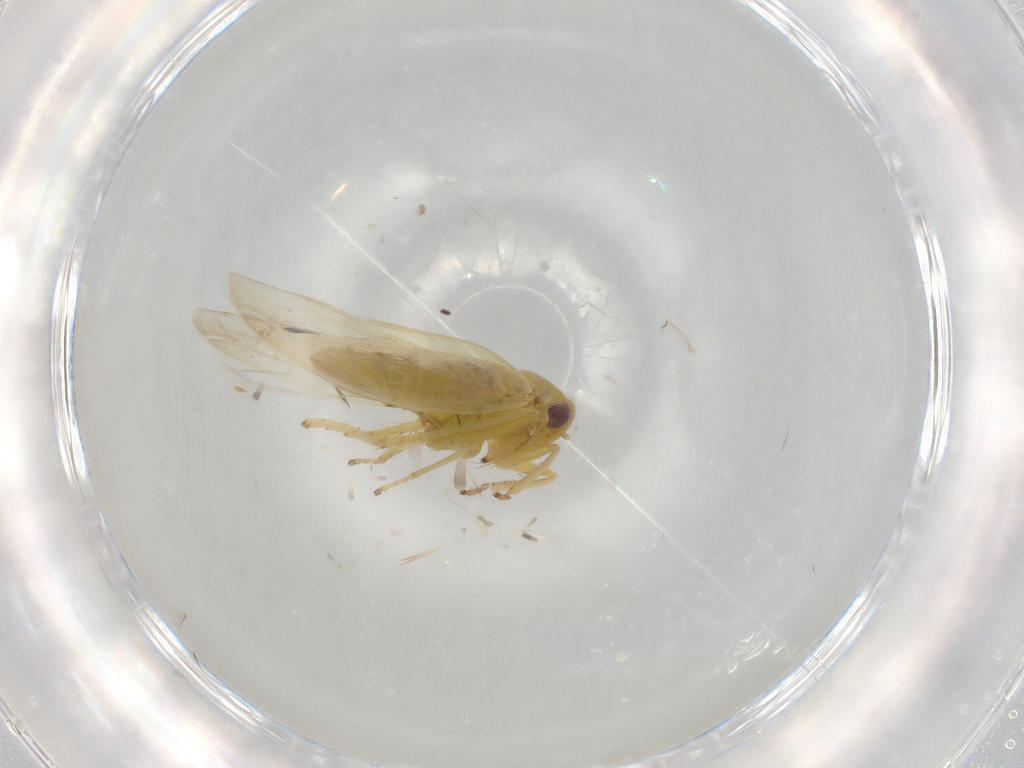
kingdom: Animalia
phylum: Arthropoda
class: Insecta
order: Hemiptera
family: Cicadellidae
